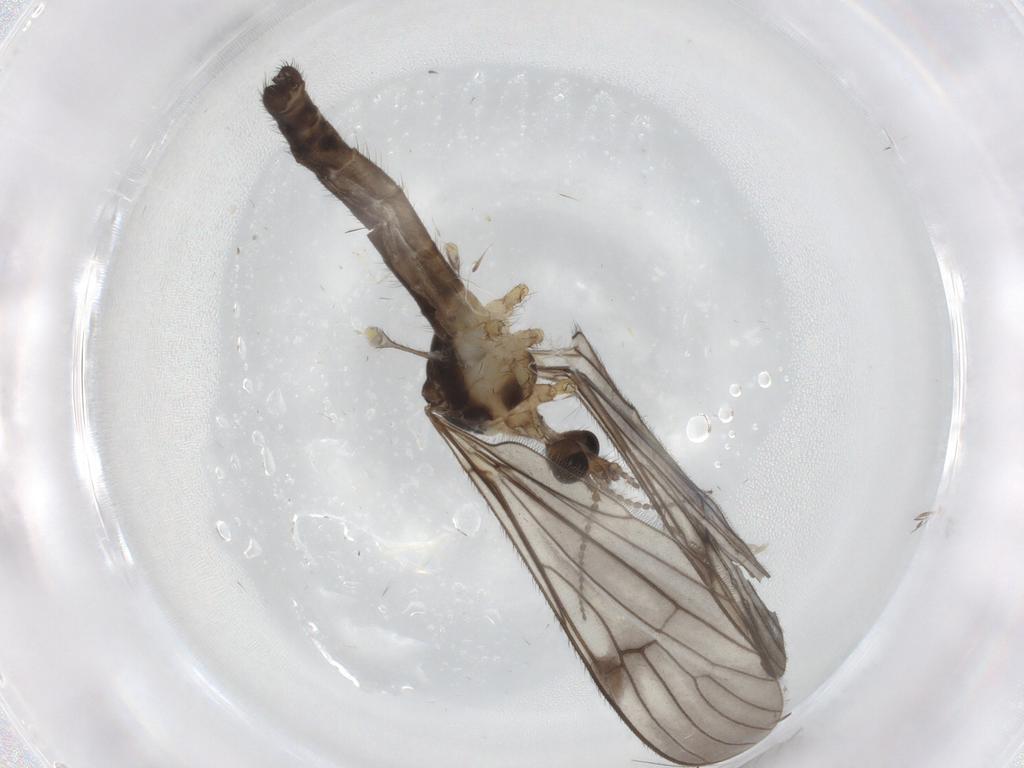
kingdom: Animalia
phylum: Arthropoda
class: Insecta
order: Diptera
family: Limoniidae
